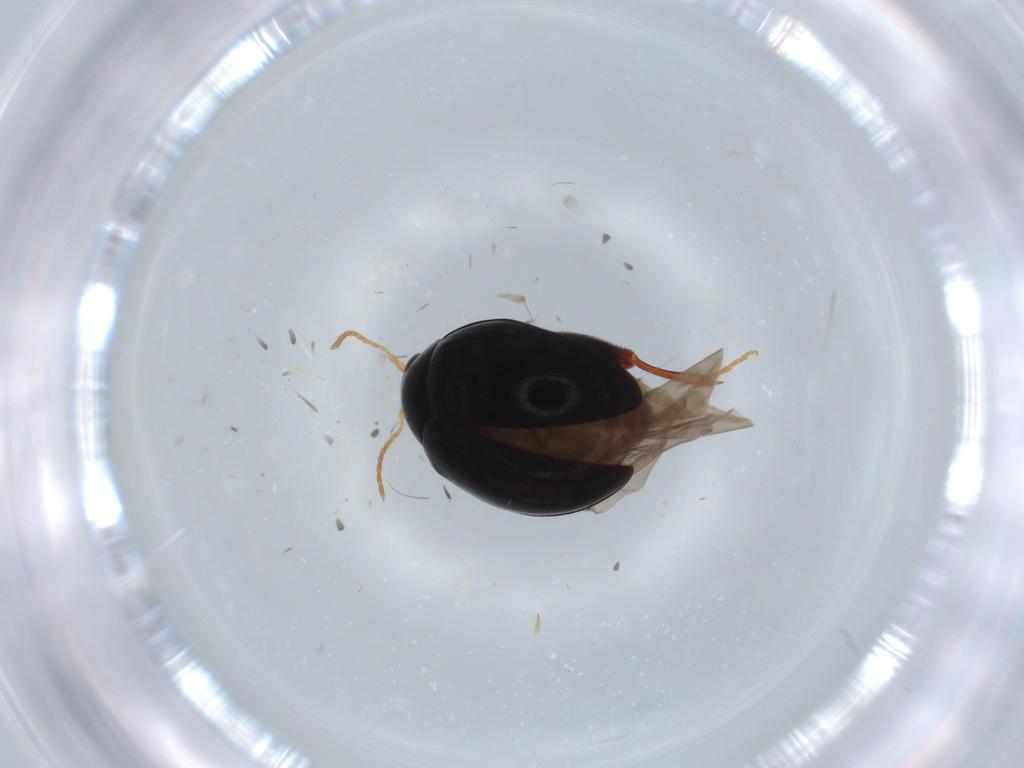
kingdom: Animalia
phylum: Arthropoda
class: Insecta
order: Coleoptera
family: Chrysomelidae
